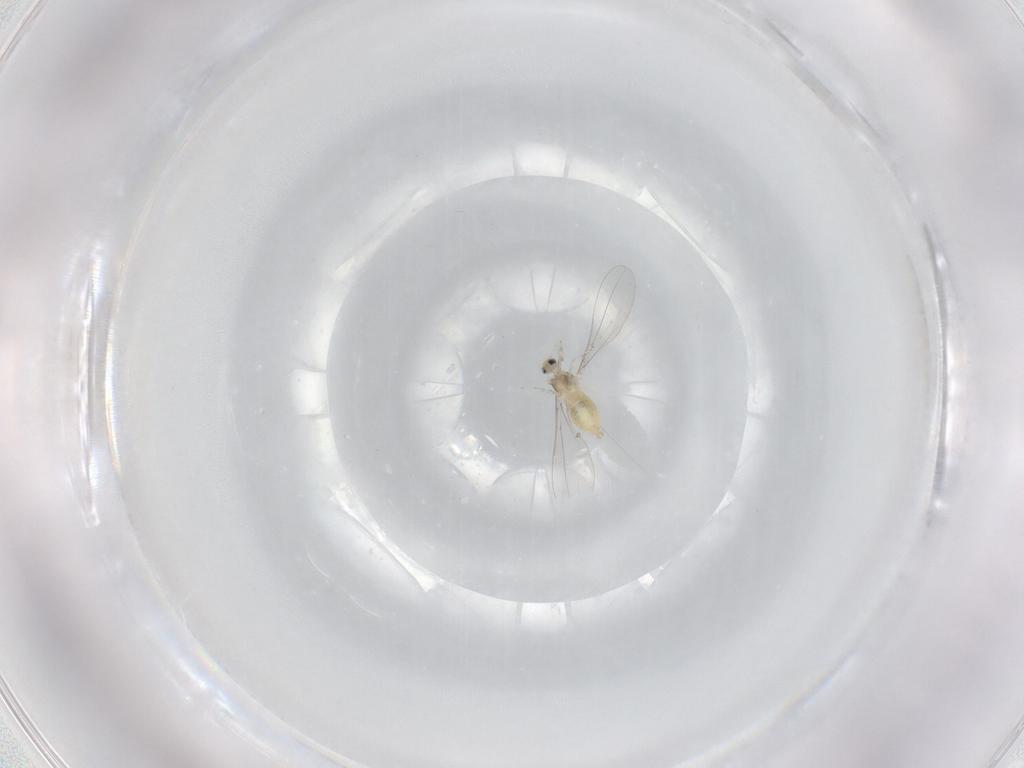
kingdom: Animalia
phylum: Arthropoda
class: Insecta
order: Diptera
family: Cecidomyiidae
